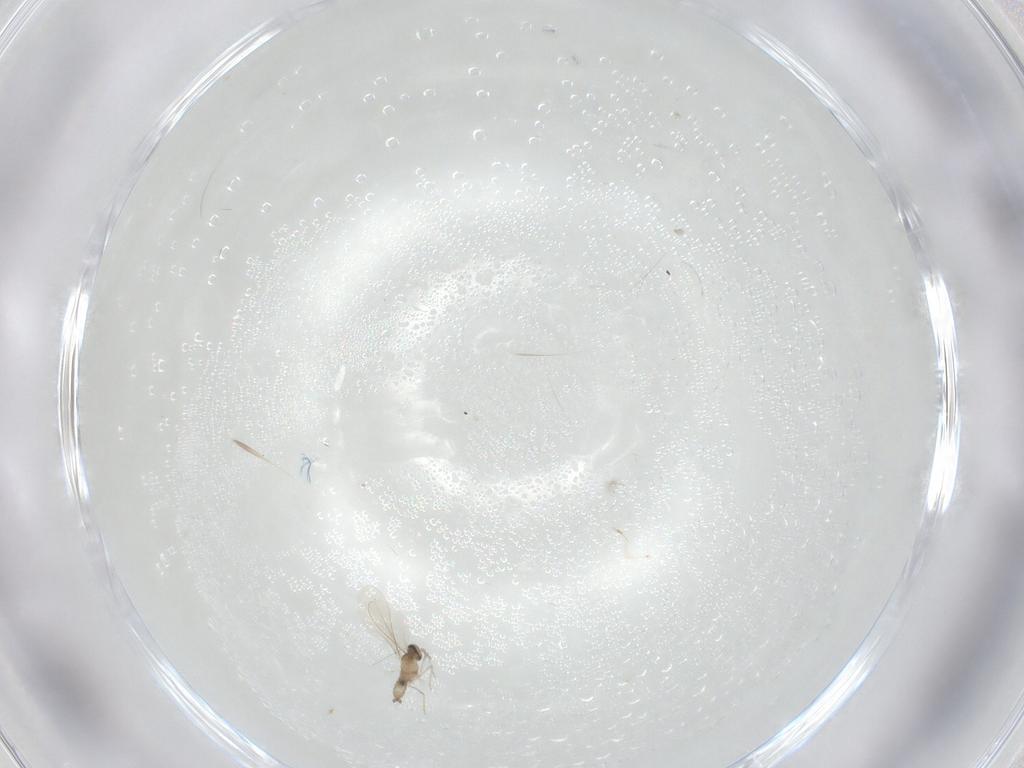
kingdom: Animalia
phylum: Arthropoda
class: Insecta
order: Diptera
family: Cecidomyiidae
